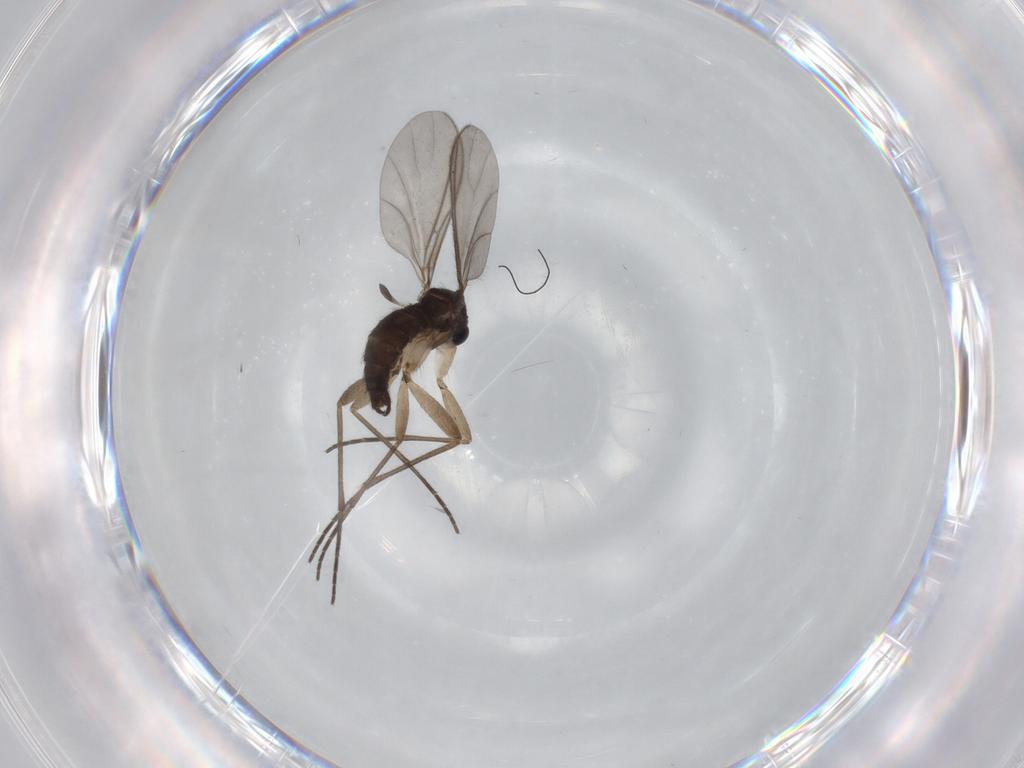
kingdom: Animalia
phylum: Arthropoda
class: Insecta
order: Diptera
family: Sciaridae
